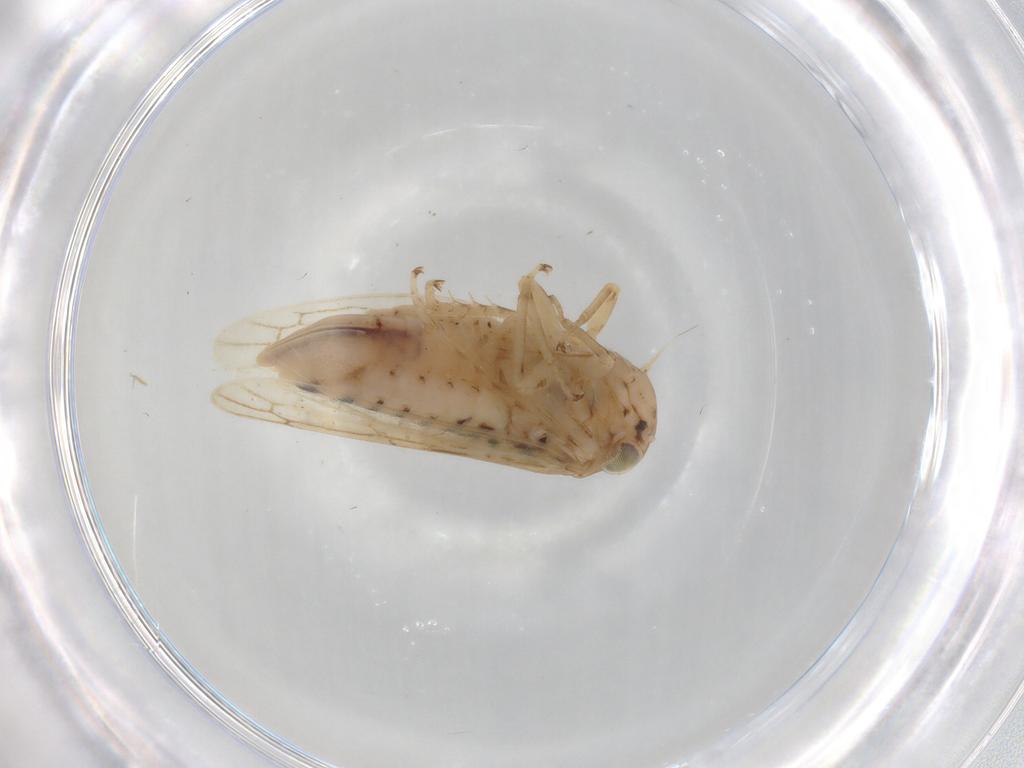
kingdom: Animalia
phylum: Arthropoda
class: Insecta
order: Hemiptera
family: Cicadellidae
